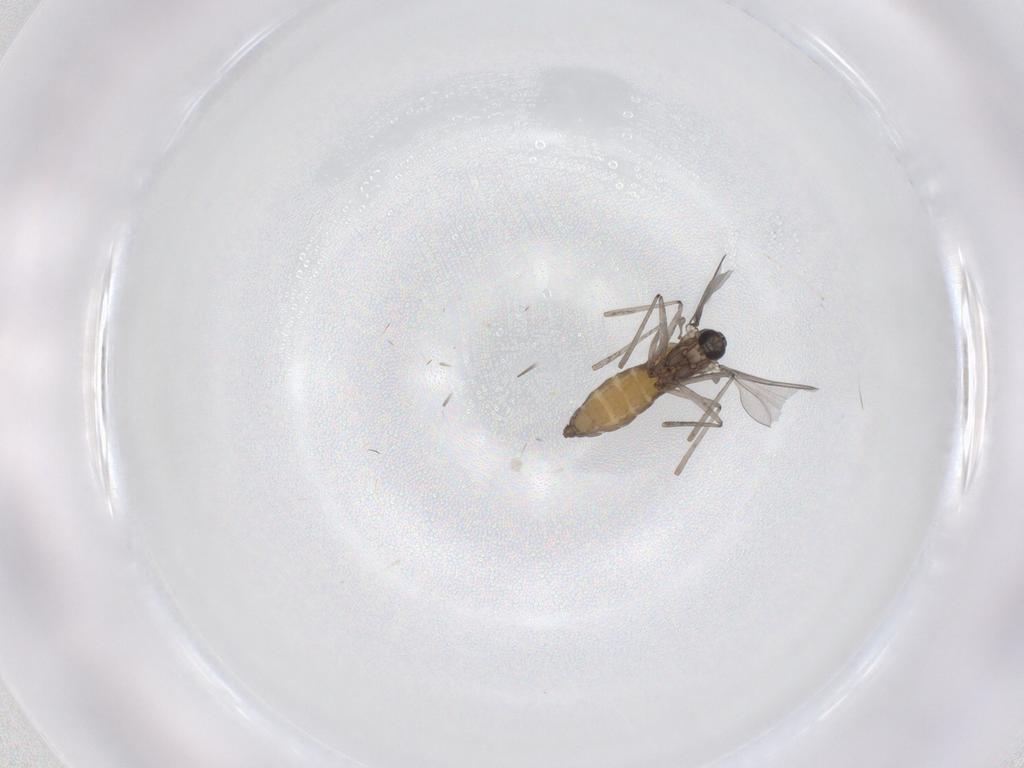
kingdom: Animalia
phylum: Arthropoda
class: Insecta
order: Diptera
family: Cecidomyiidae
